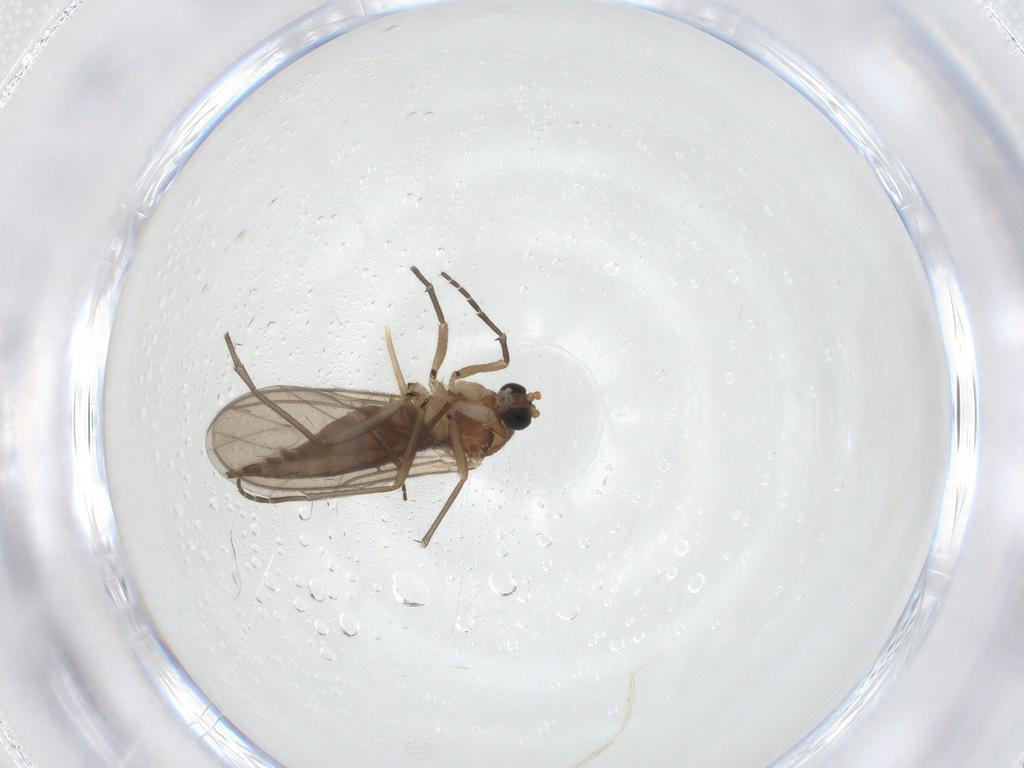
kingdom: Animalia
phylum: Arthropoda
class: Insecta
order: Diptera
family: Sciaridae
